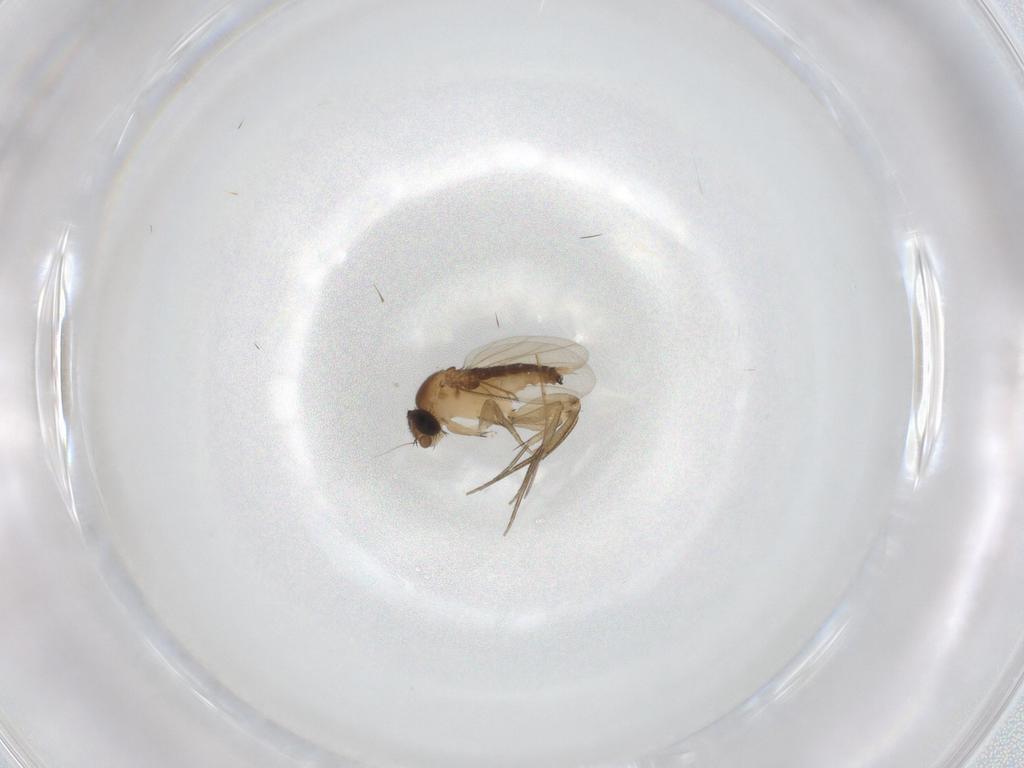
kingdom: Animalia
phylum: Arthropoda
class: Insecta
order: Diptera
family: Phoridae
